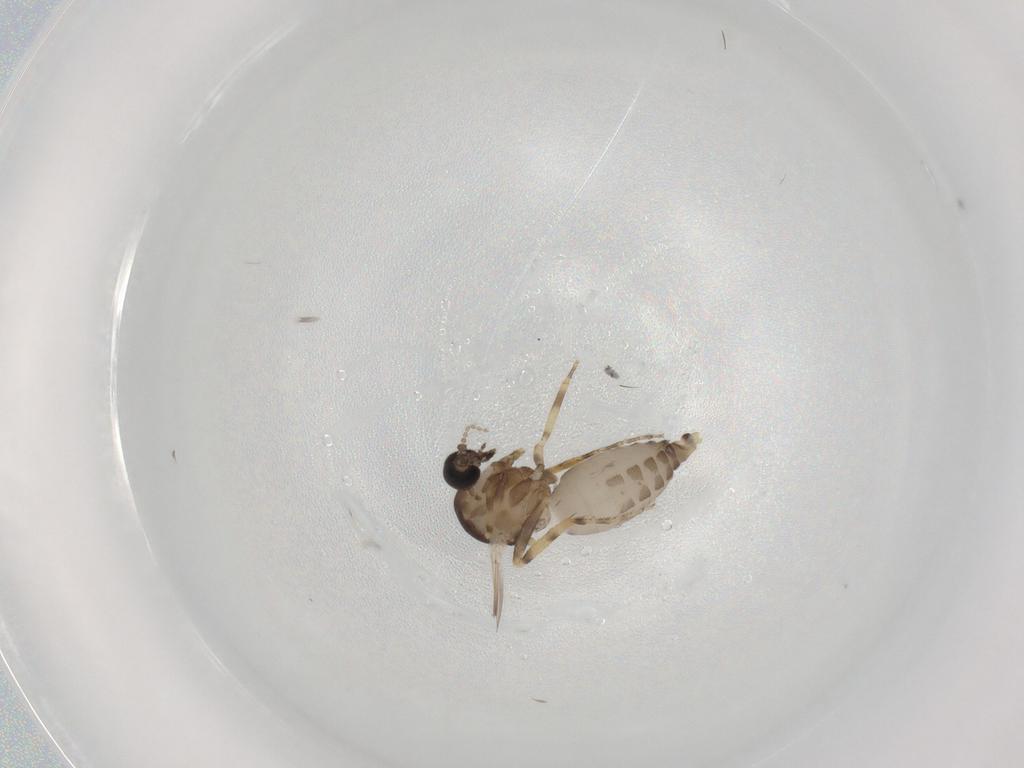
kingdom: Animalia
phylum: Arthropoda
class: Insecta
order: Diptera
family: Ceratopogonidae
